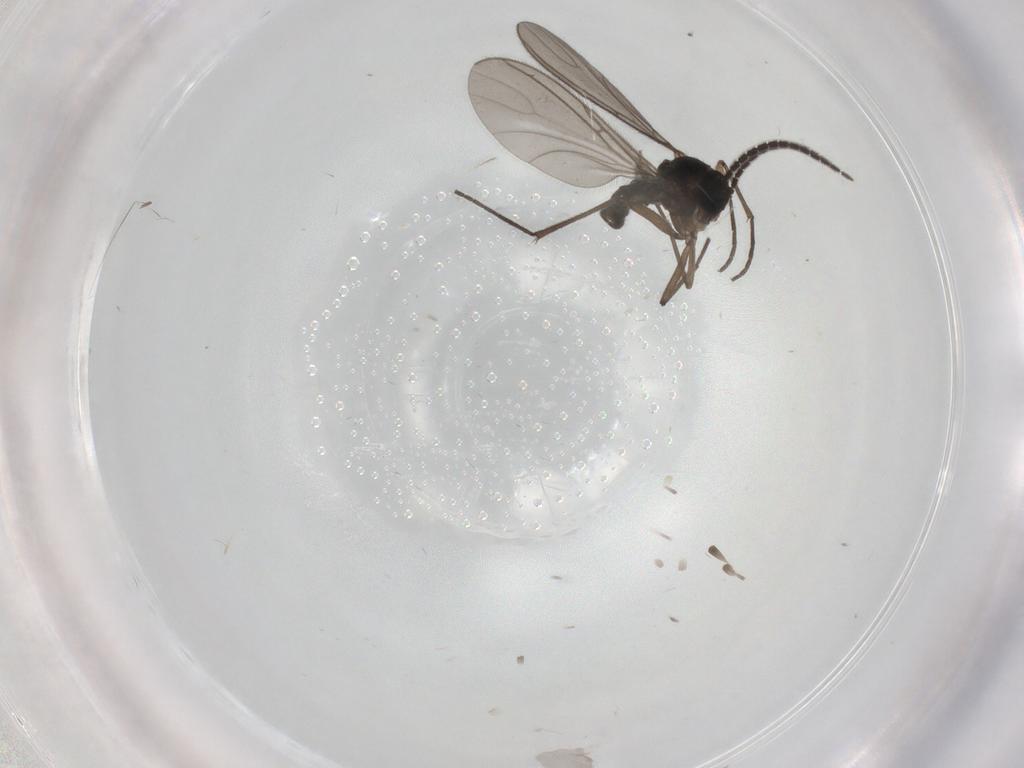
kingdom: Animalia
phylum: Arthropoda
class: Insecta
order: Diptera
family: Sciaridae
